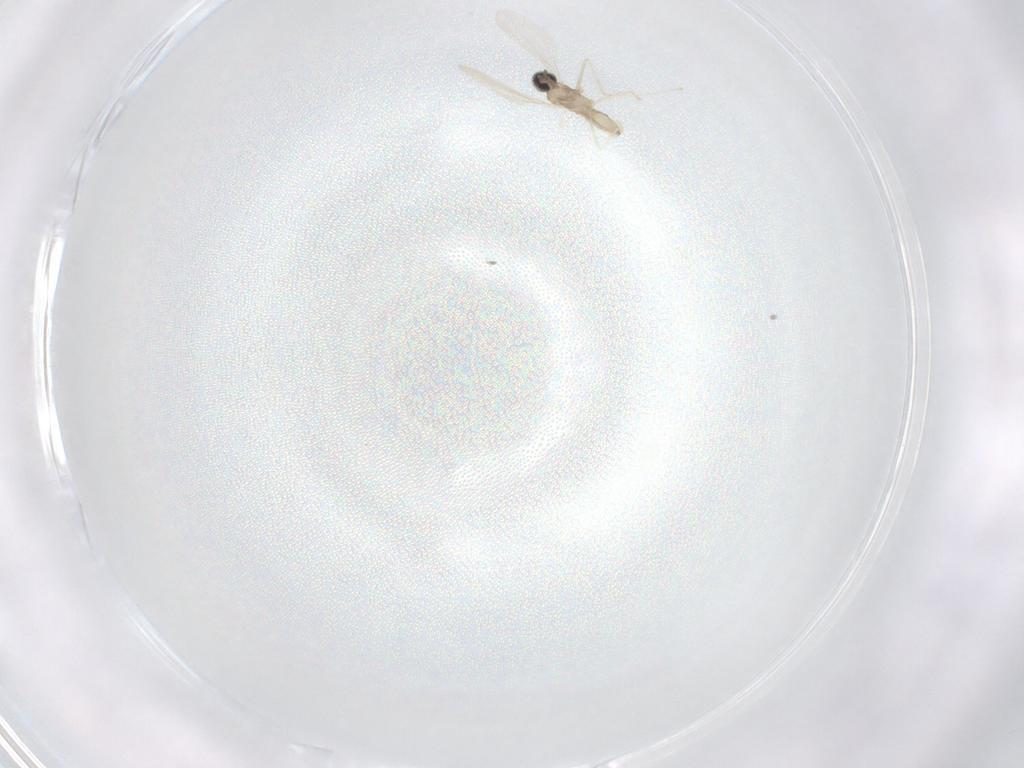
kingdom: Animalia
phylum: Arthropoda
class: Insecta
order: Diptera
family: Cecidomyiidae
